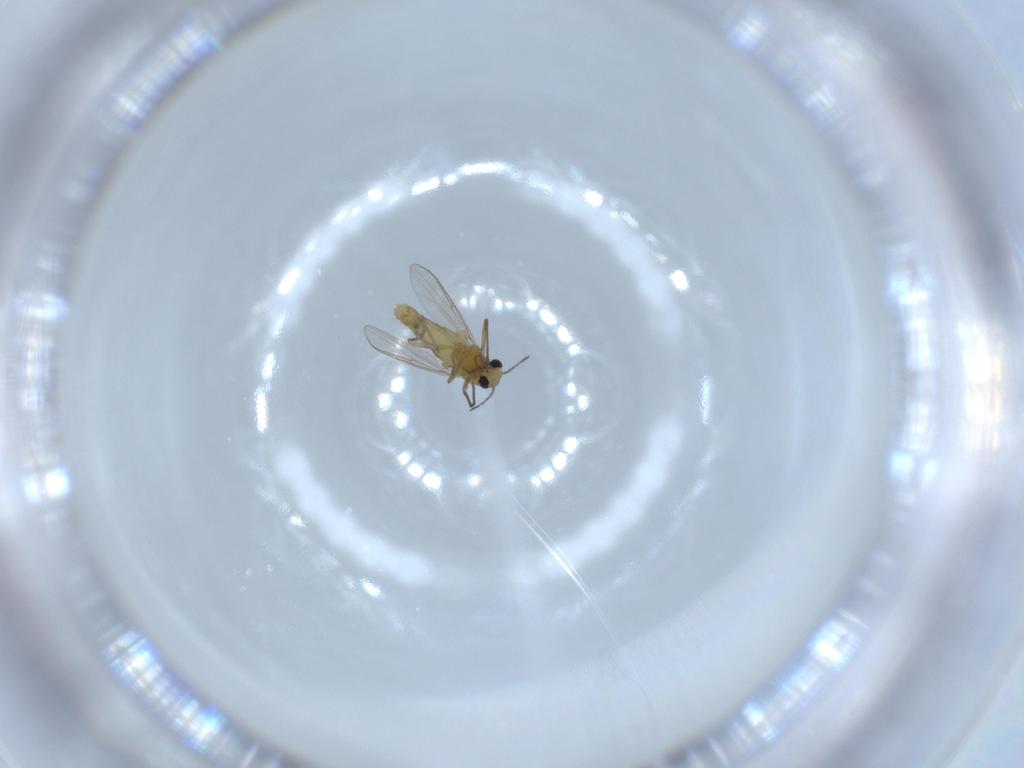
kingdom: Animalia
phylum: Arthropoda
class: Insecta
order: Diptera
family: Chironomidae
